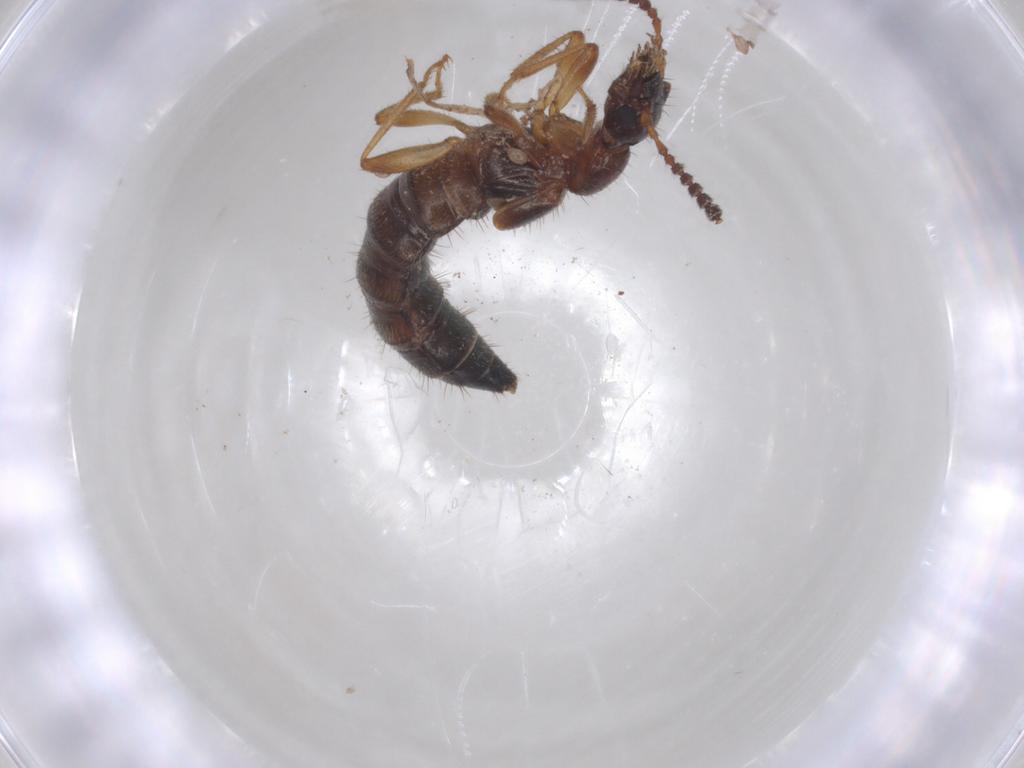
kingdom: Animalia
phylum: Arthropoda
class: Insecta
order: Coleoptera
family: Staphylinidae
